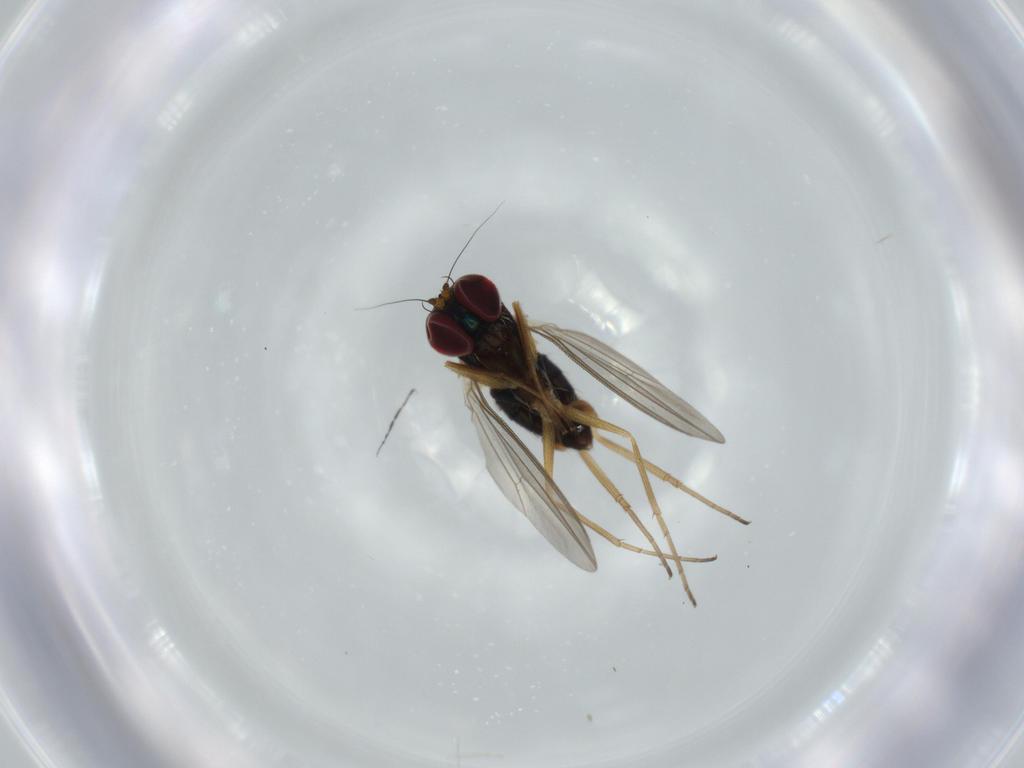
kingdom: Animalia
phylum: Arthropoda
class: Insecta
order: Diptera
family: Dolichopodidae
